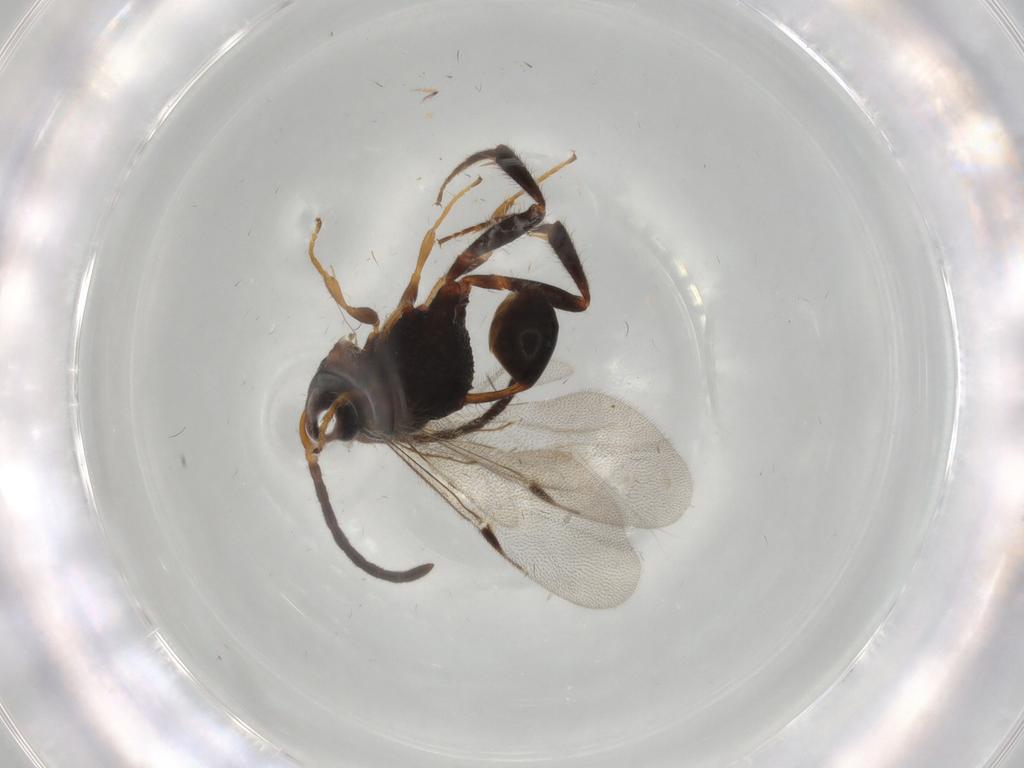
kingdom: Animalia
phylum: Arthropoda
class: Insecta
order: Hymenoptera
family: Evaniidae
